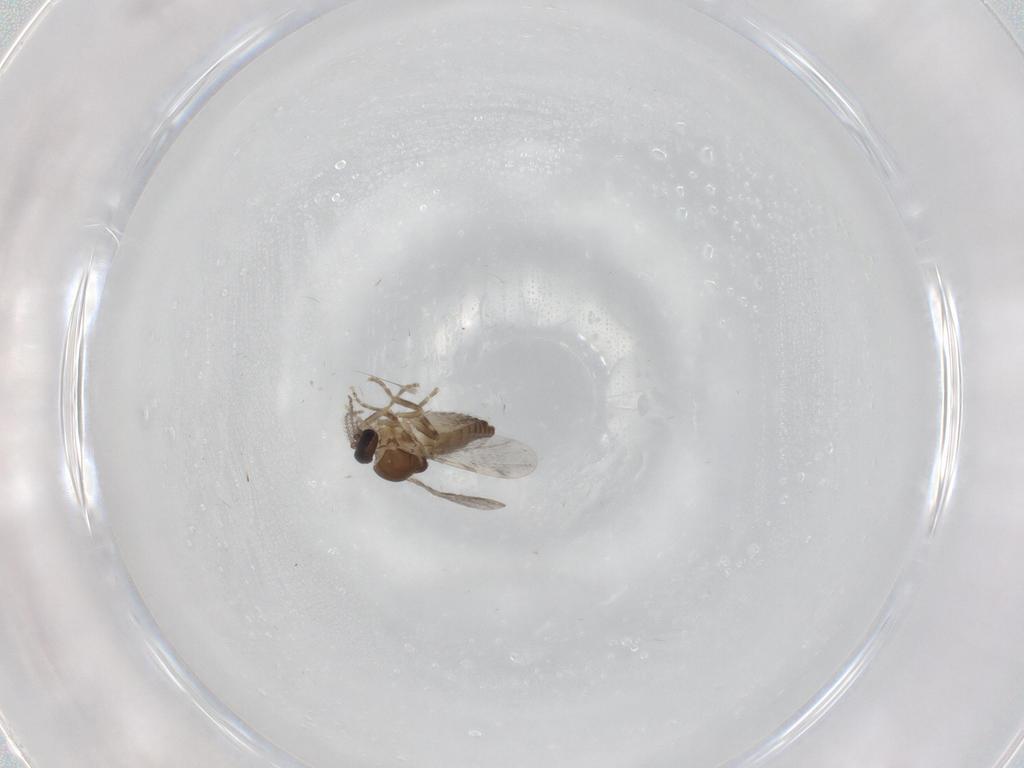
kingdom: Animalia
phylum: Arthropoda
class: Insecta
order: Diptera
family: Ceratopogonidae
